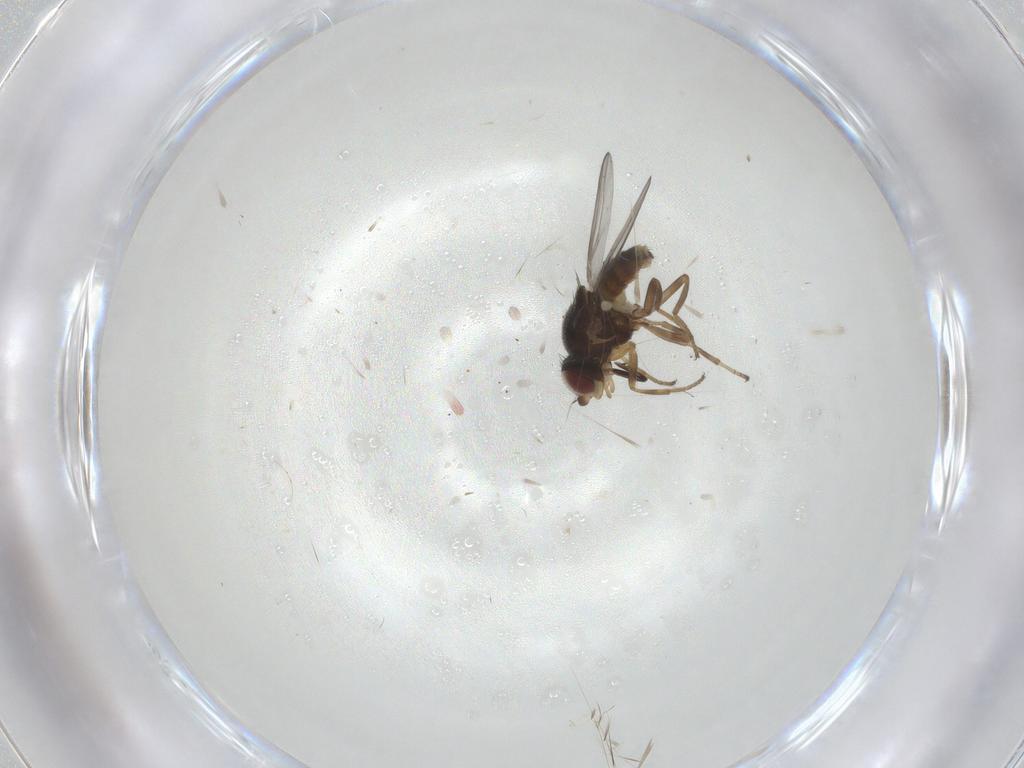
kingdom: Animalia
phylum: Arthropoda
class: Insecta
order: Diptera
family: Chloropidae
